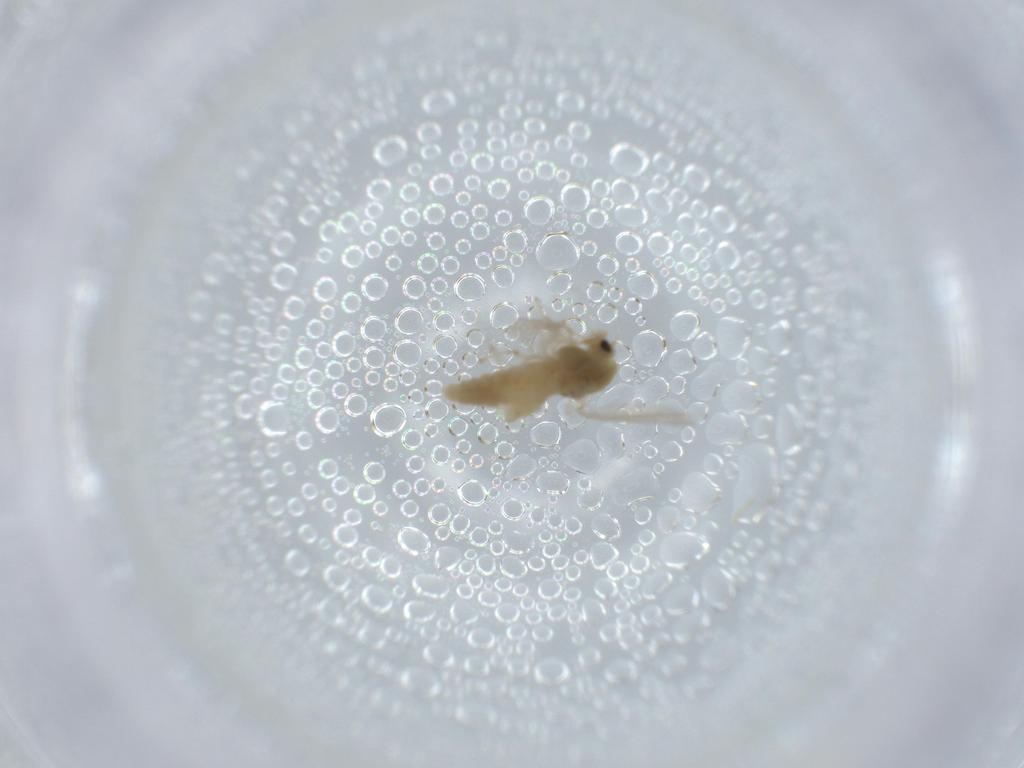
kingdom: Animalia
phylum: Arthropoda
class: Insecta
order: Diptera
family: Chironomidae
